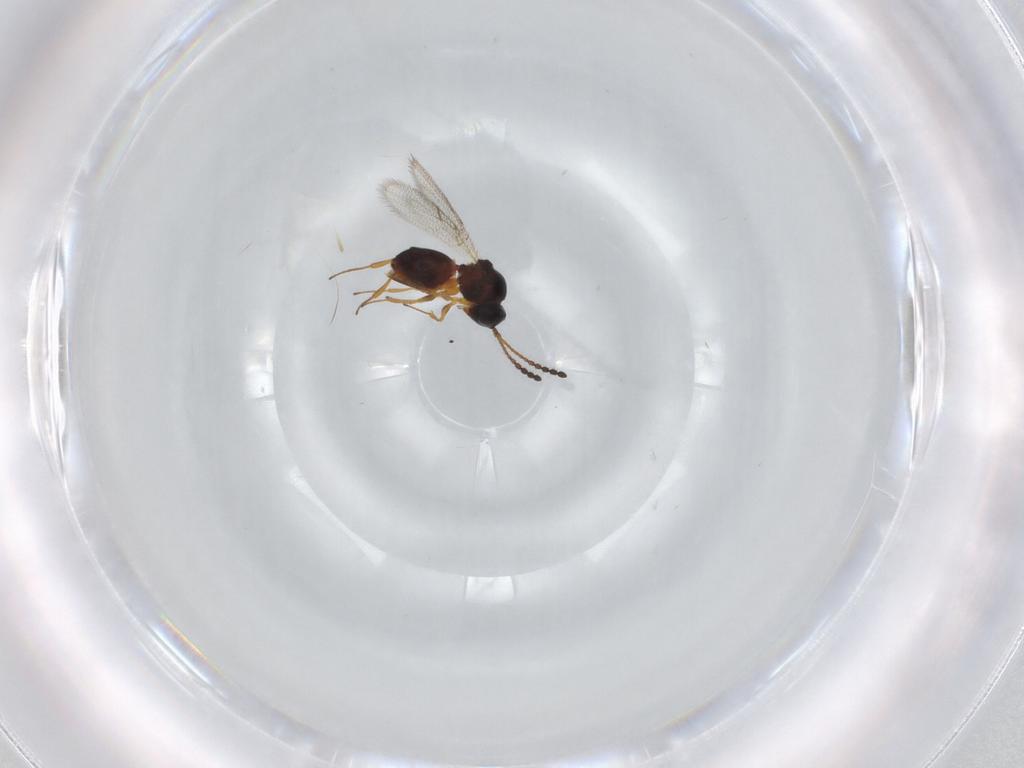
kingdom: Animalia
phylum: Arthropoda
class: Insecta
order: Hymenoptera
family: Figitidae
